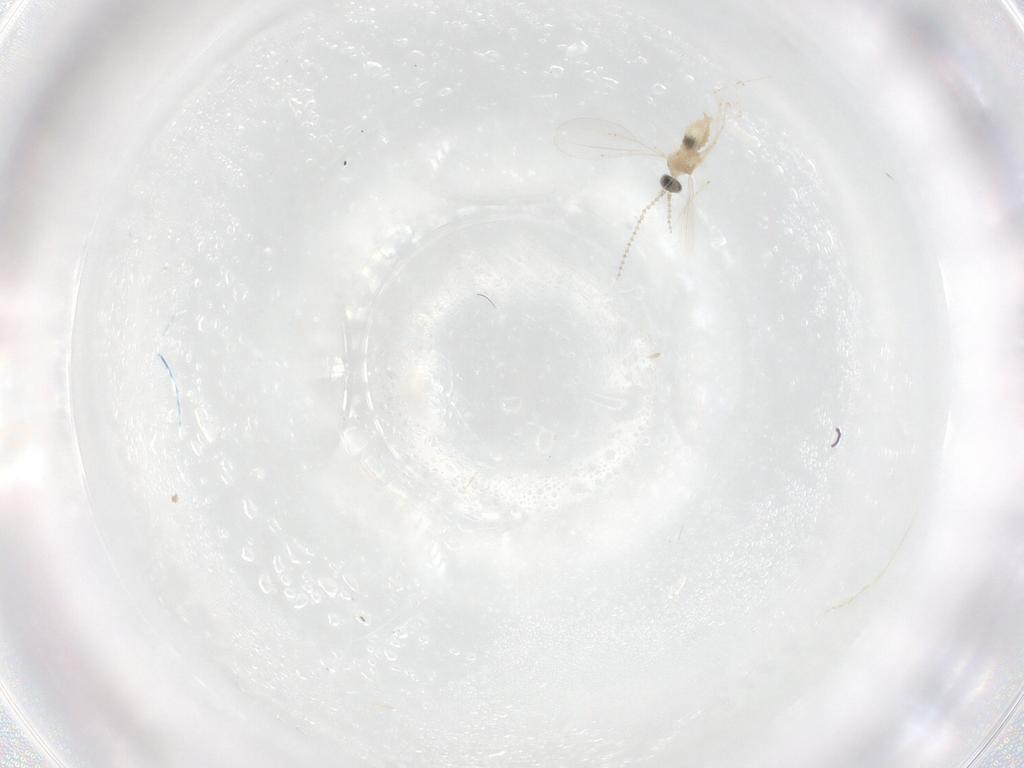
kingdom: Animalia
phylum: Arthropoda
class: Insecta
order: Diptera
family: Cecidomyiidae
